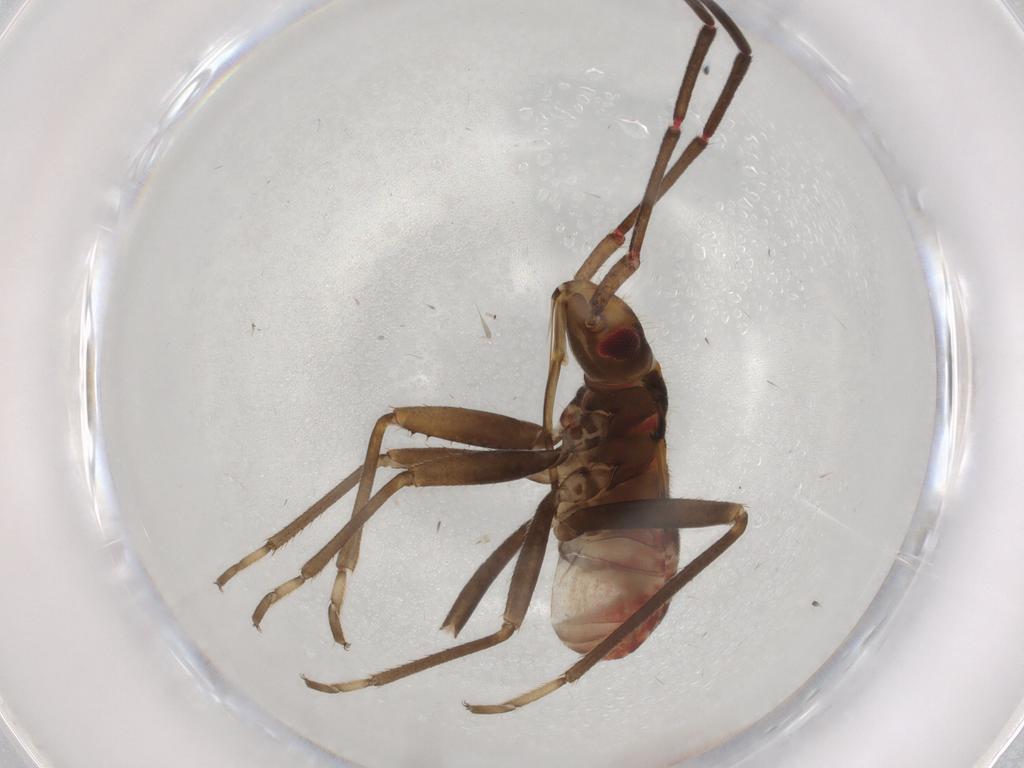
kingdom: Animalia
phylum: Arthropoda
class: Insecta
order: Hemiptera
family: Rhyparochromidae
